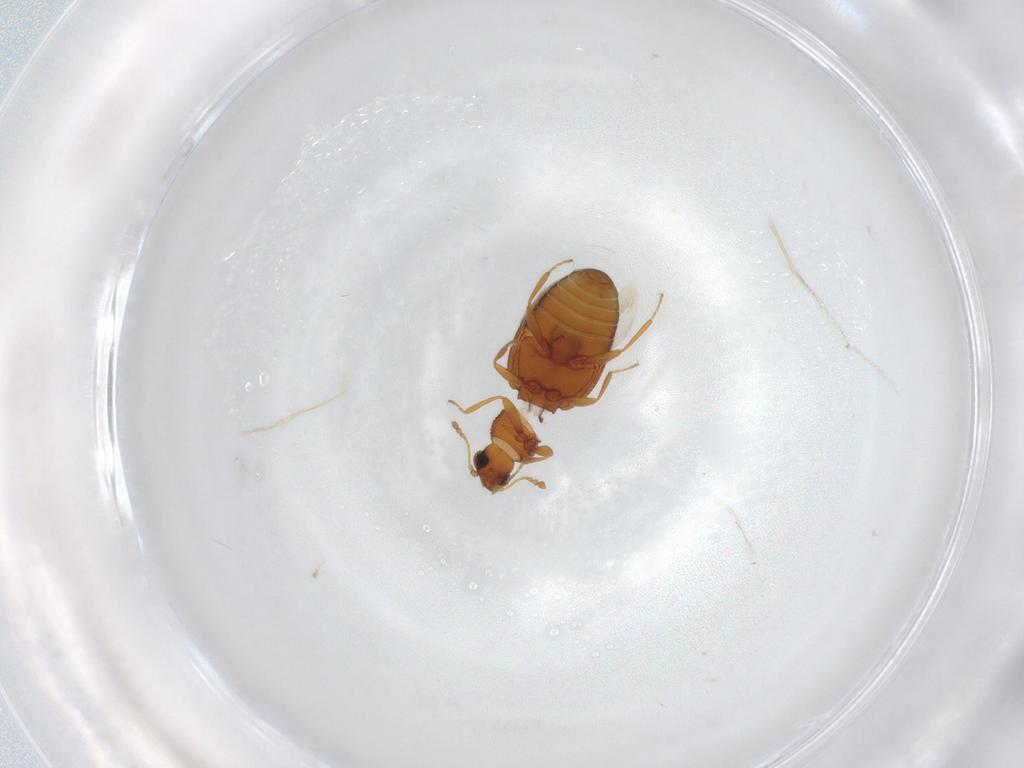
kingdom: Animalia
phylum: Arthropoda
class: Insecta
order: Coleoptera
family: Latridiidae
